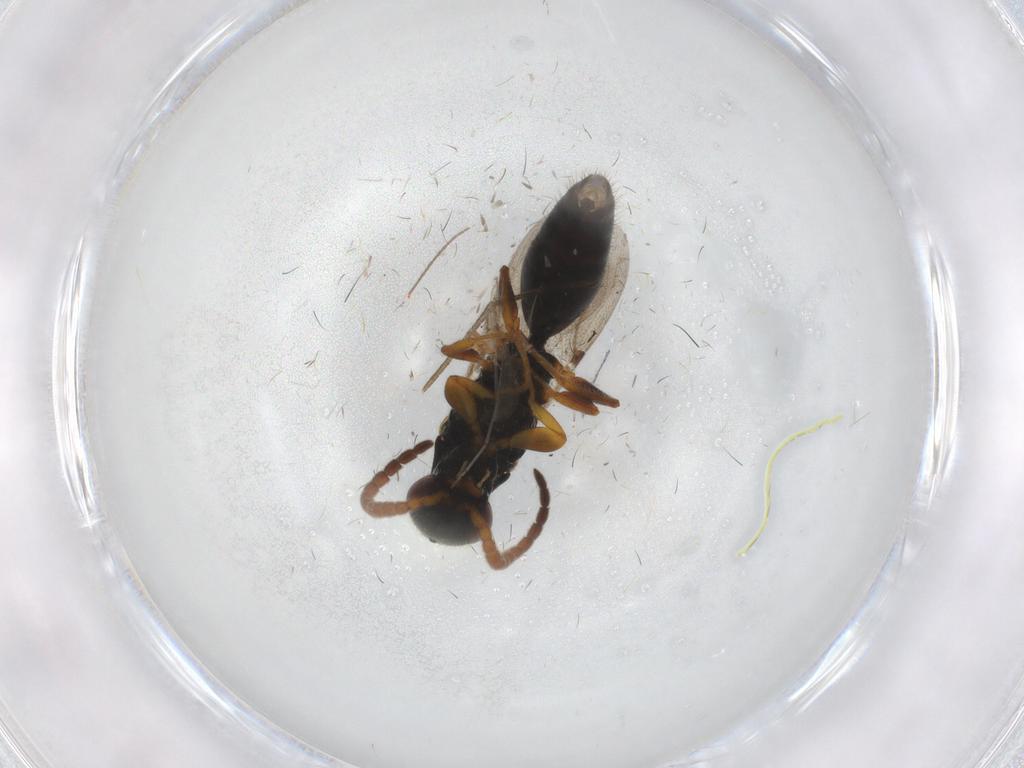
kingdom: Animalia
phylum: Arthropoda
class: Insecta
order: Hymenoptera
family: Bethylidae
